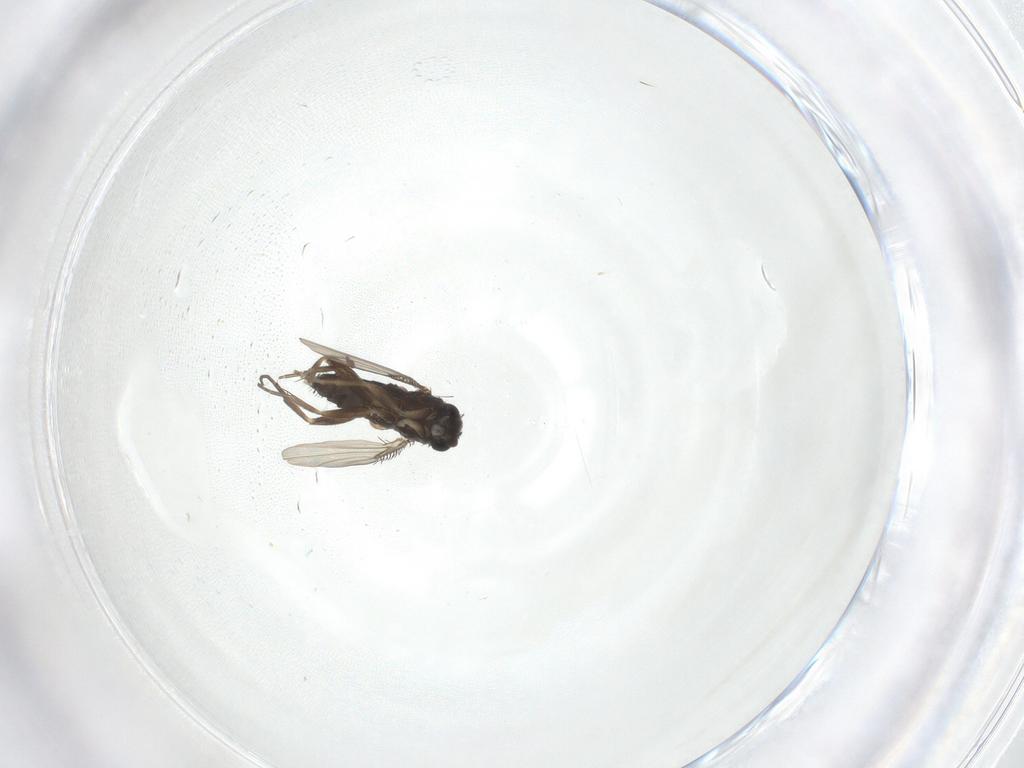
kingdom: Animalia
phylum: Arthropoda
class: Insecta
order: Diptera
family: Phoridae
